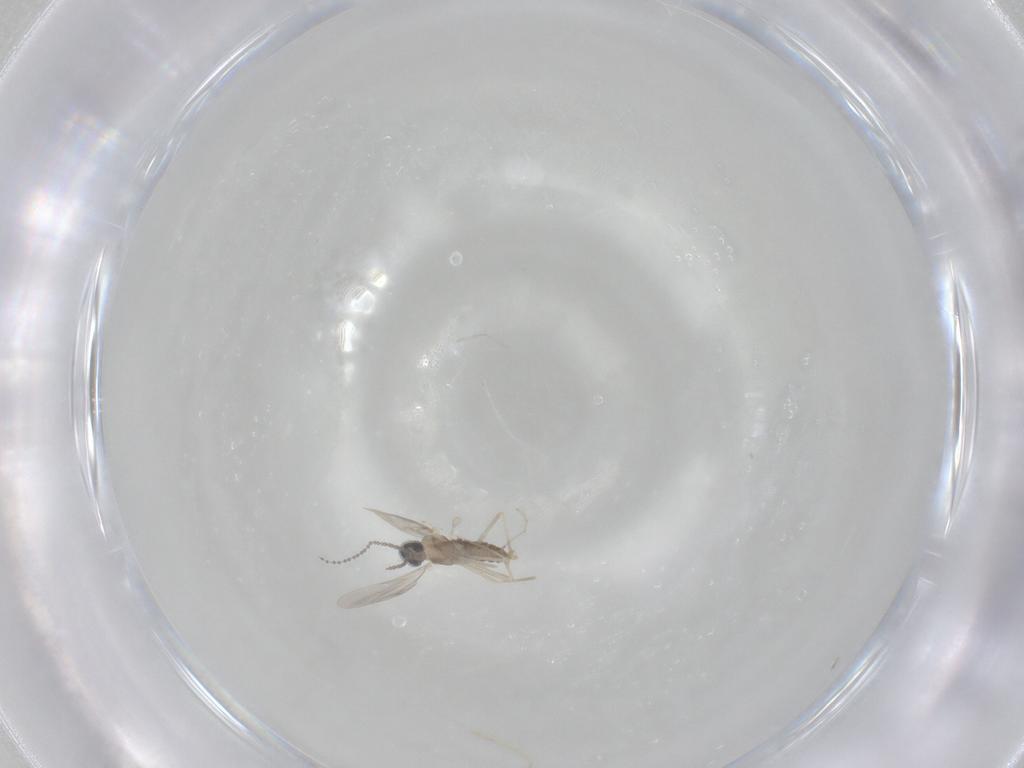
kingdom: Animalia
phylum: Arthropoda
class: Insecta
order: Diptera
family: Cecidomyiidae
